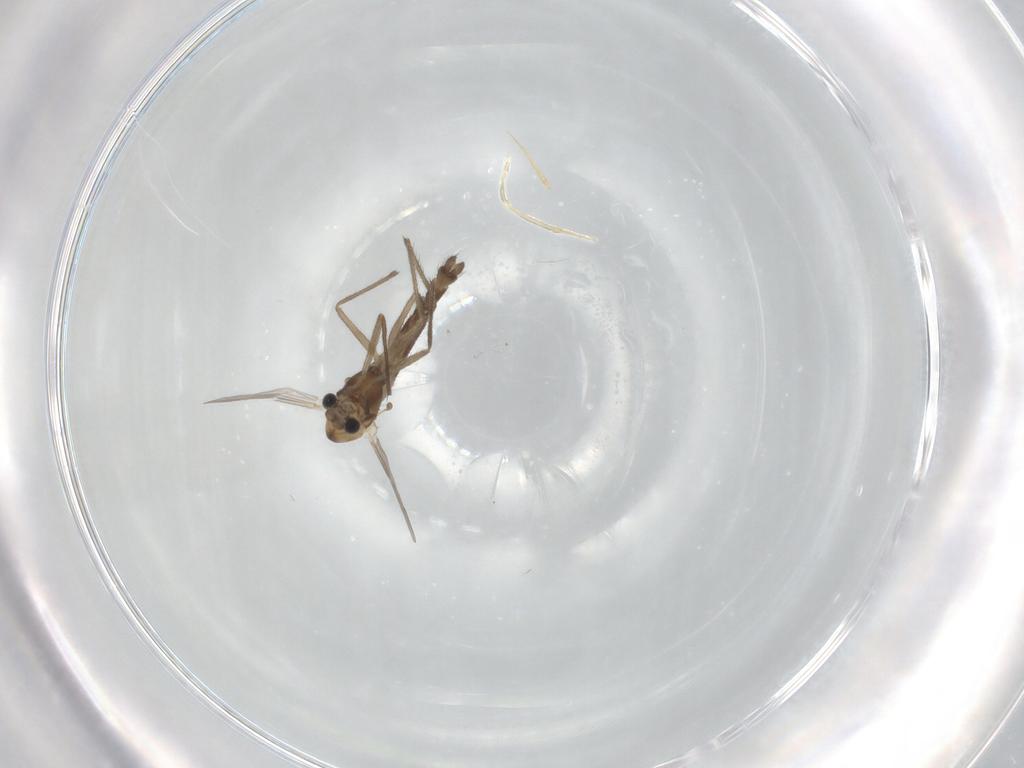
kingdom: Animalia
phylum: Arthropoda
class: Insecta
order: Diptera
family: Chironomidae
